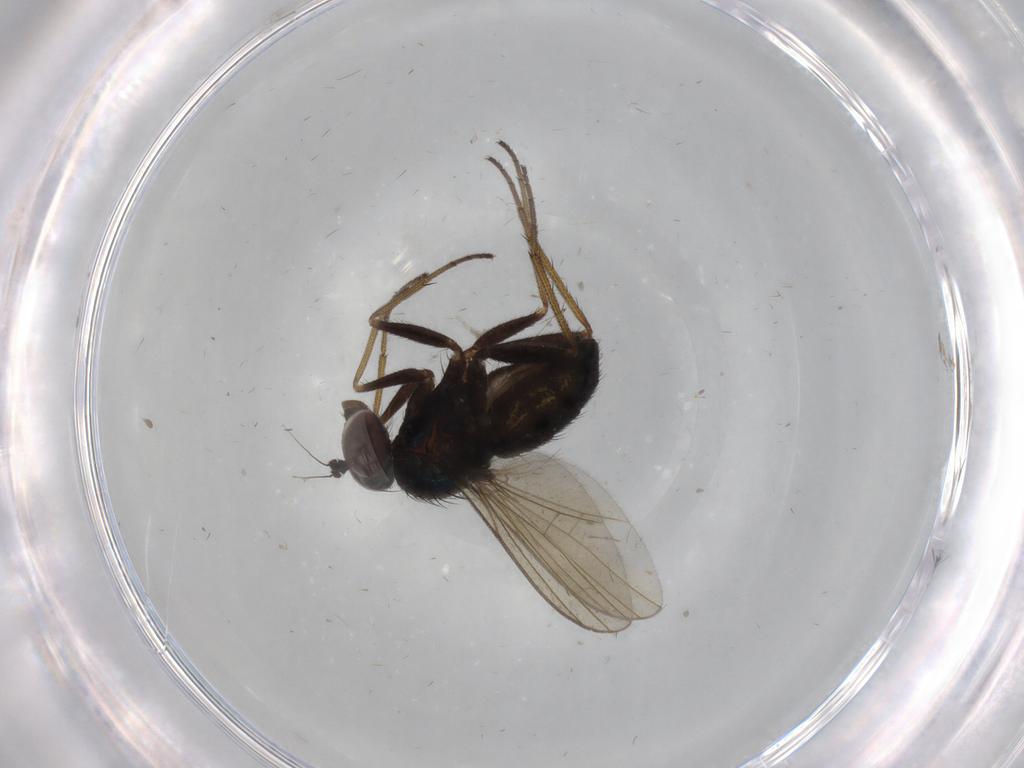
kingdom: Animalia
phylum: Arthropoda
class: Insecta
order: Diptera
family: Dolichopodidae
